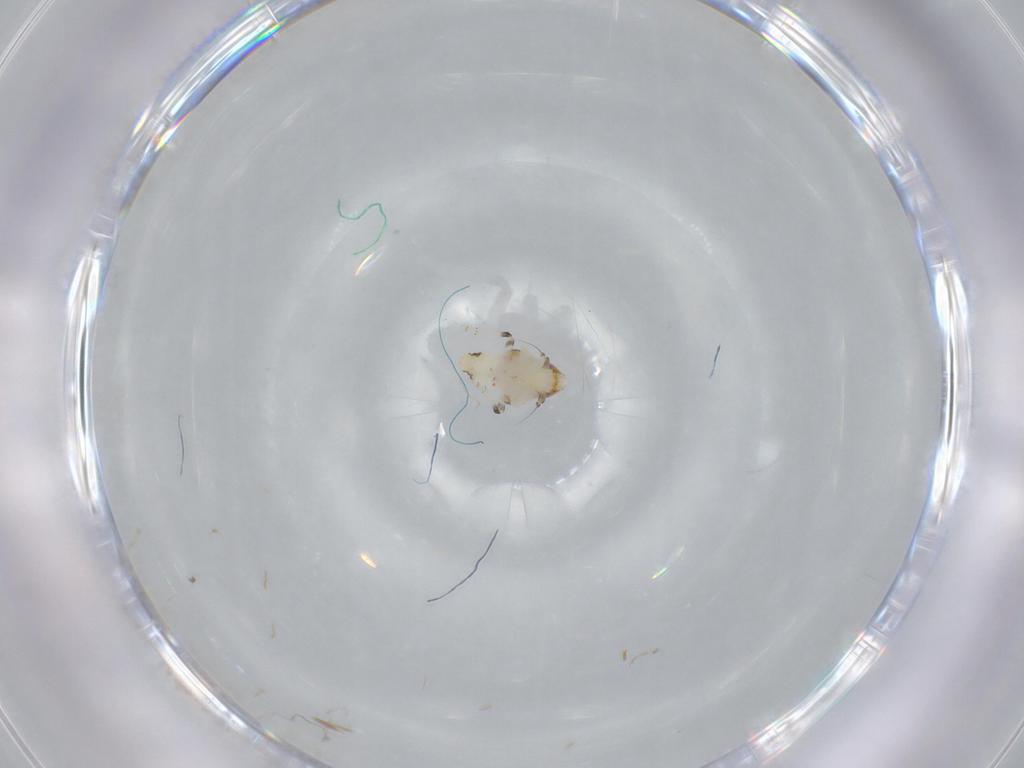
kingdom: Animalia
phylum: Arthropoda
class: Insecta
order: Hemiptera
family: Nogodinidae
